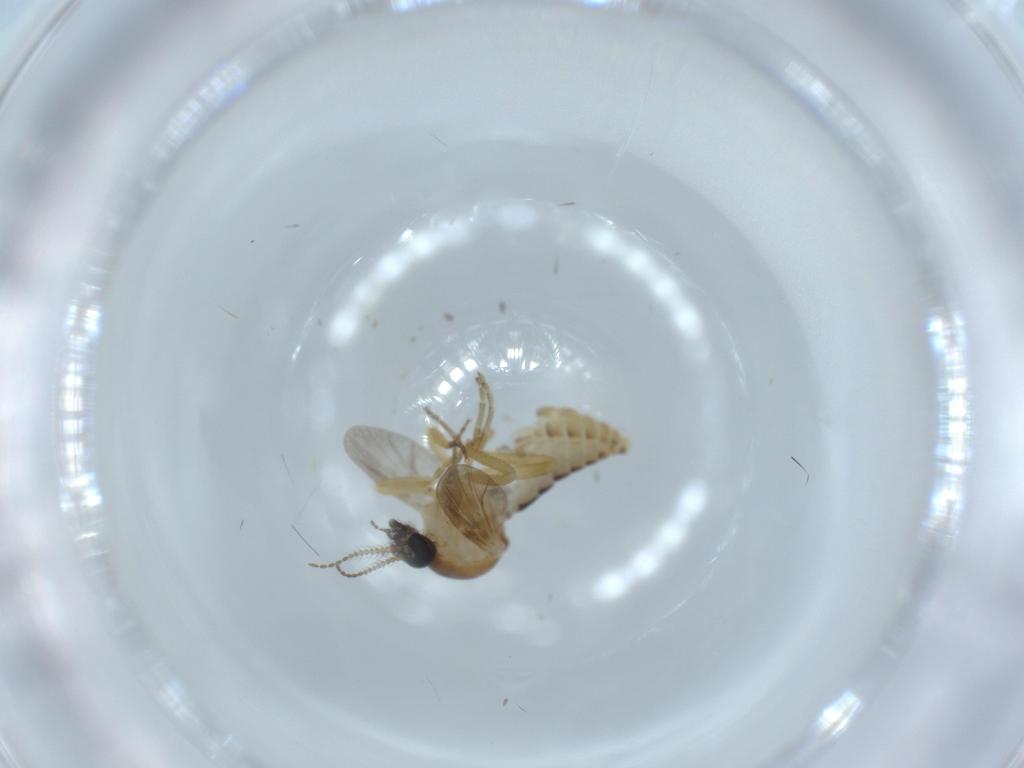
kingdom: Animalia
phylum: Arthropoda
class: Insecta
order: Diptera
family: Ceratopogonidae
